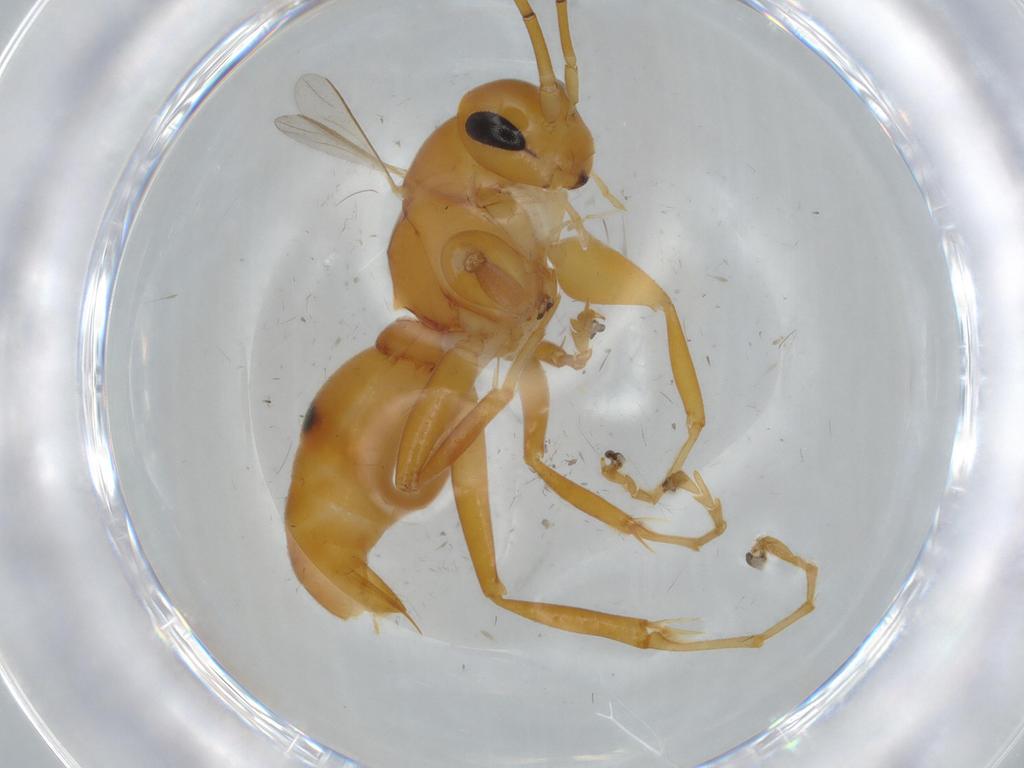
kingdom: Animalia
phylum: Arthropoda
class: Insecta
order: Hymenoptera
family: Rhopalosomatidae
